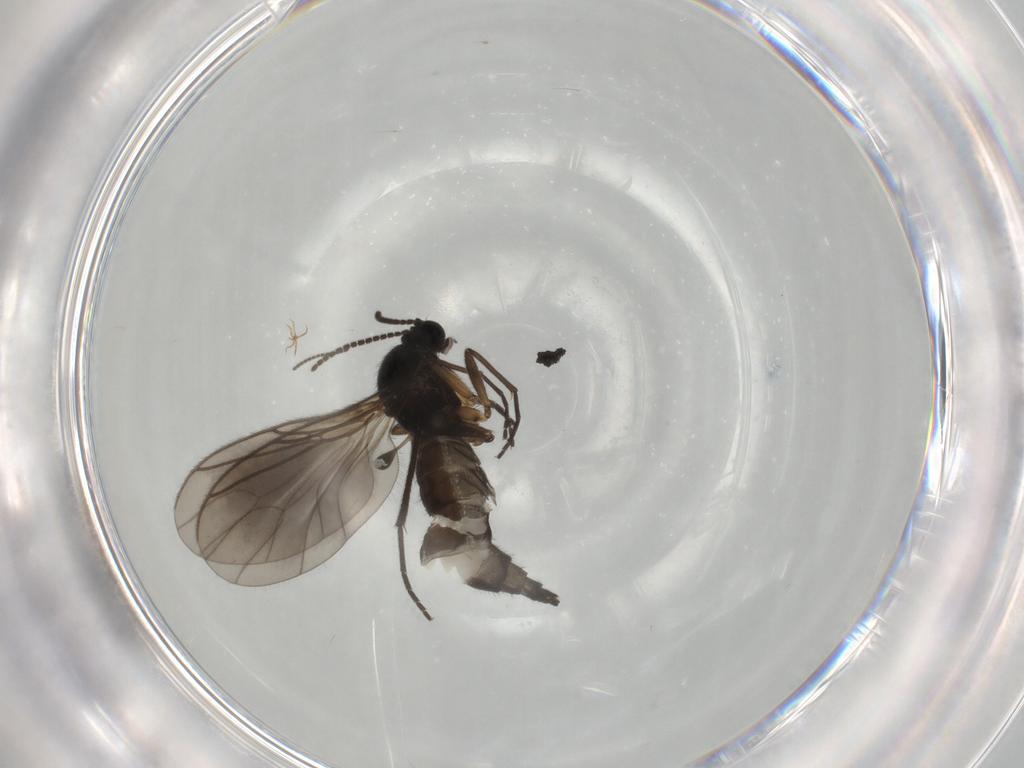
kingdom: Animalia
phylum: Arthropoda
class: Insecta
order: Diptera
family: Sciaridae
